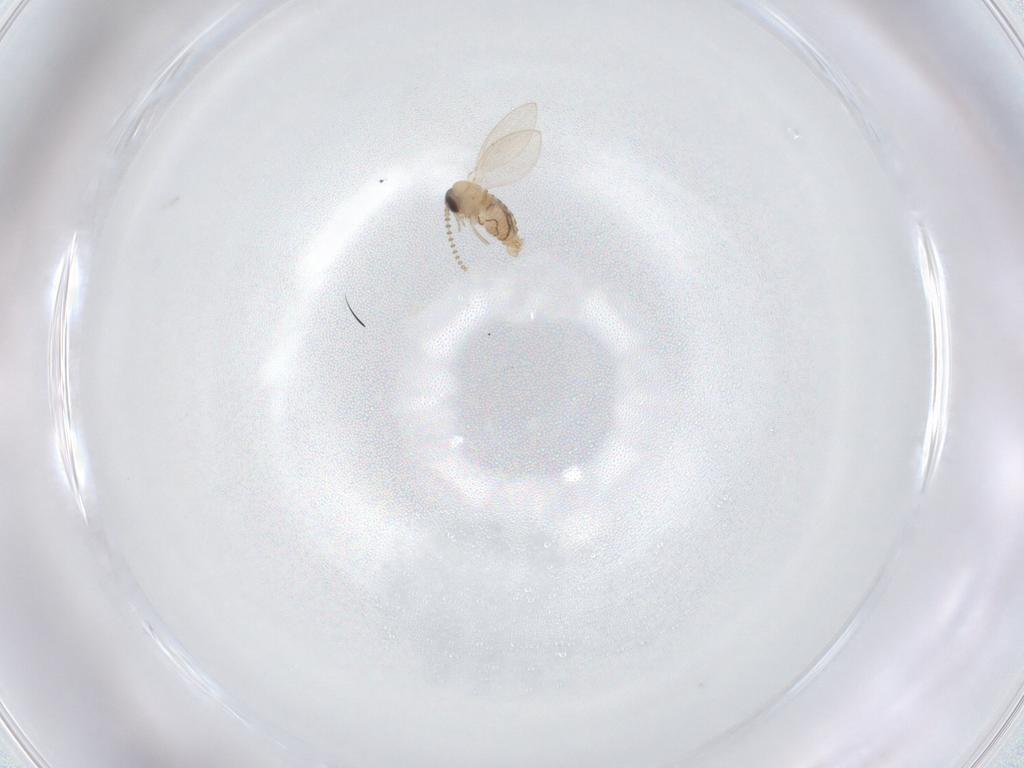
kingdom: Animalia
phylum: Arthropoda
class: Insecta
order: Diptera
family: Psychodidae
